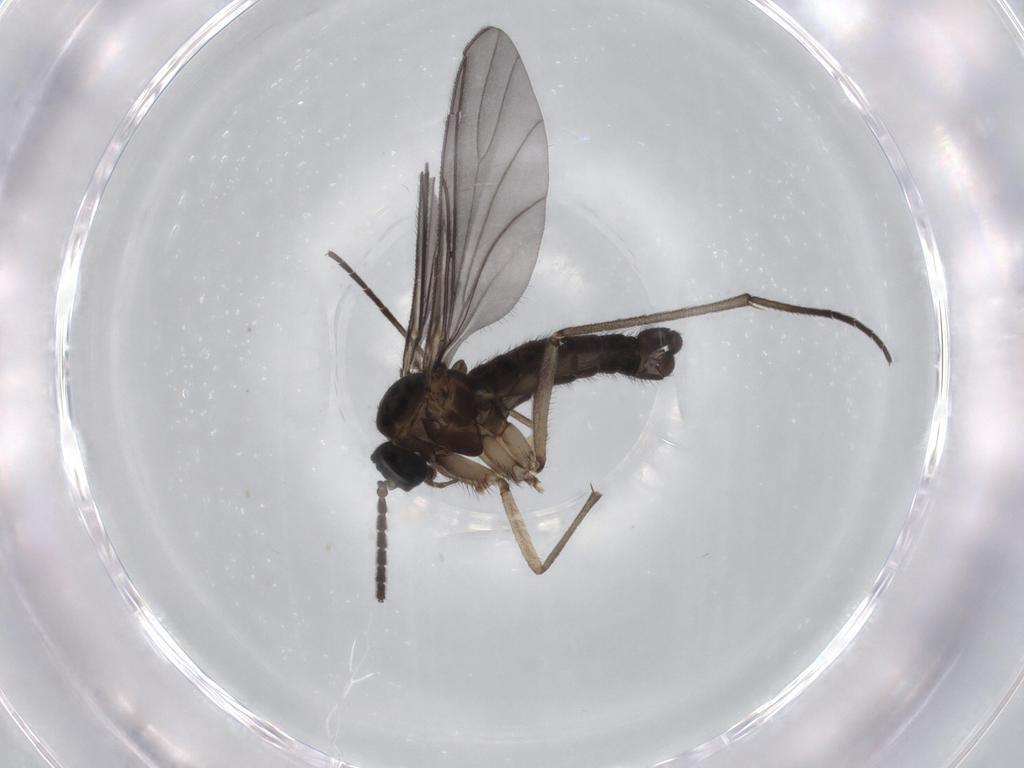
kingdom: Animalia
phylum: Arthropoda
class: Insecta
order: Diptera
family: Sciaridae
